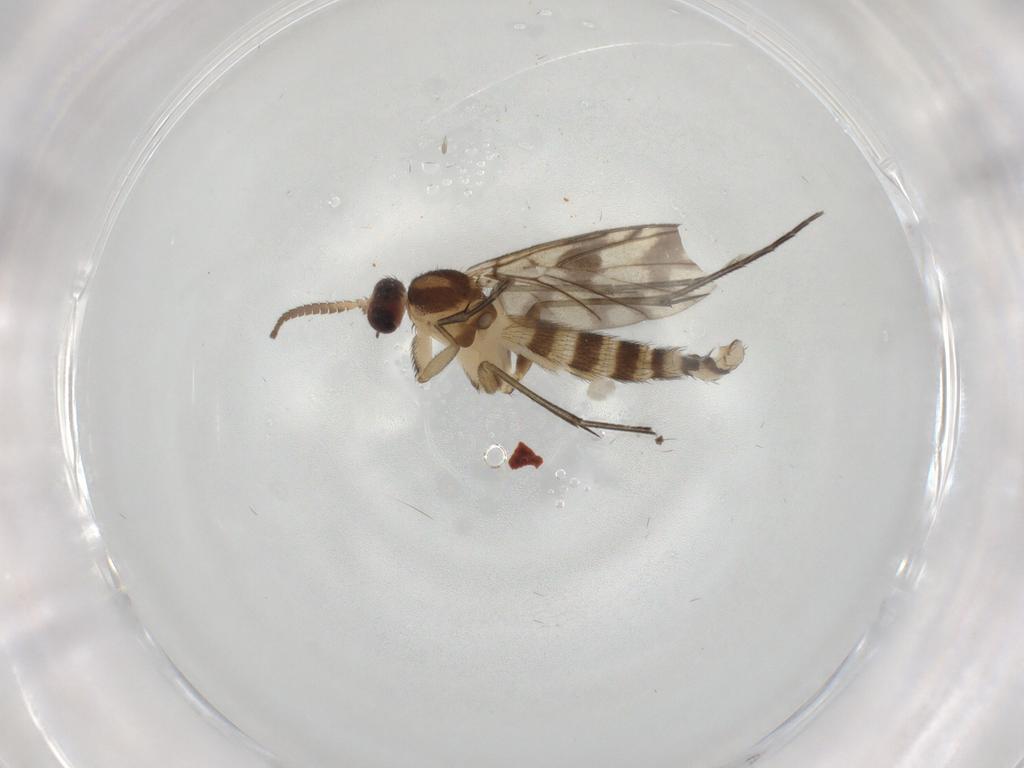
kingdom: Animalia
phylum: Arthropoda
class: Insecta
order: Diptera
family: Keroplatidae
